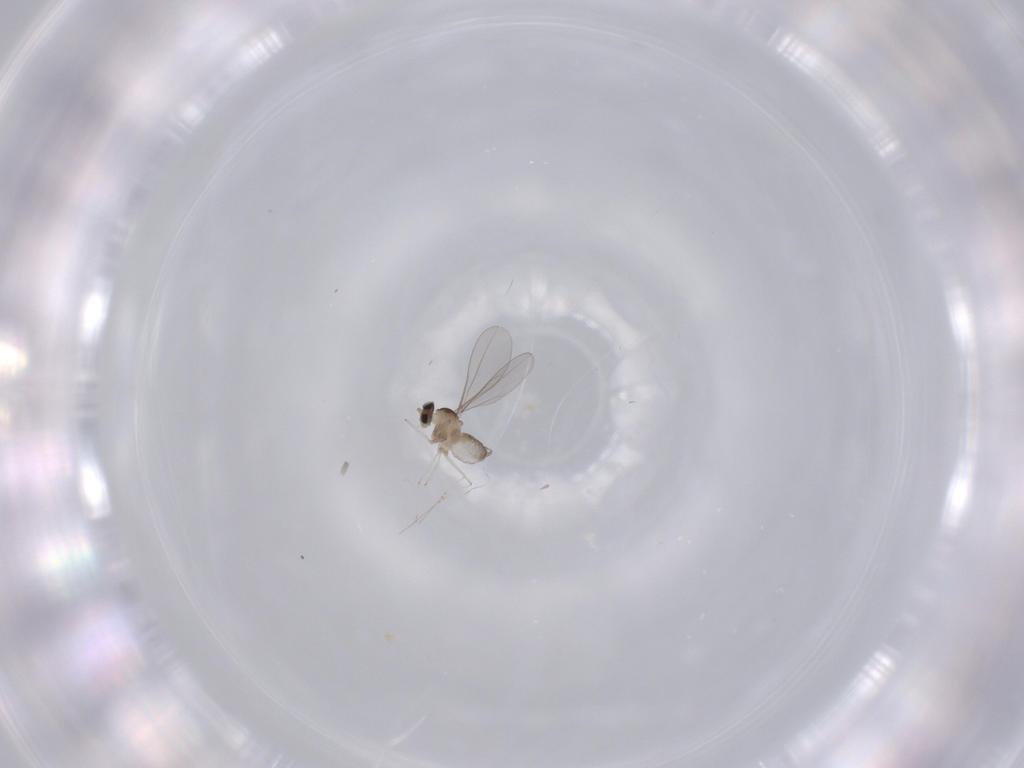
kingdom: Animalia
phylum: Arthropoda
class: Insecta
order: Diptera
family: Cecidomyiidae
